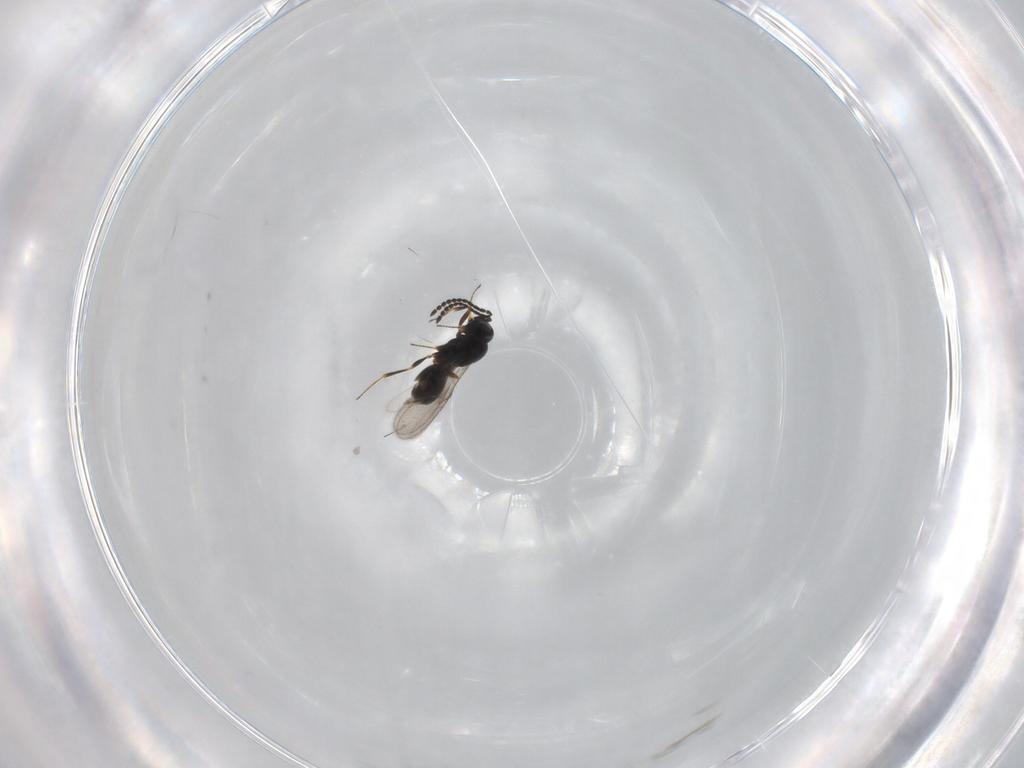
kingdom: Animalia
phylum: Arthropoda
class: Insecta
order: Hymenoptera
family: Scelionidae
